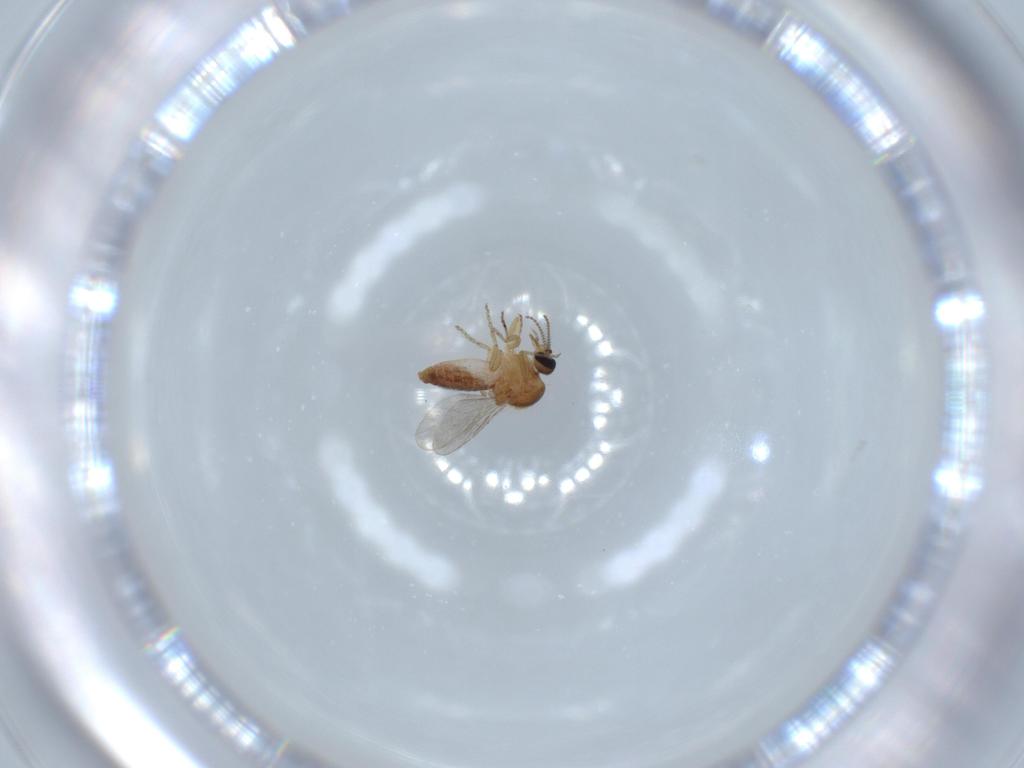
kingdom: Animalia
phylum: Arthropoda
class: Insecta
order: Diptera
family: Ceratopogonidae
